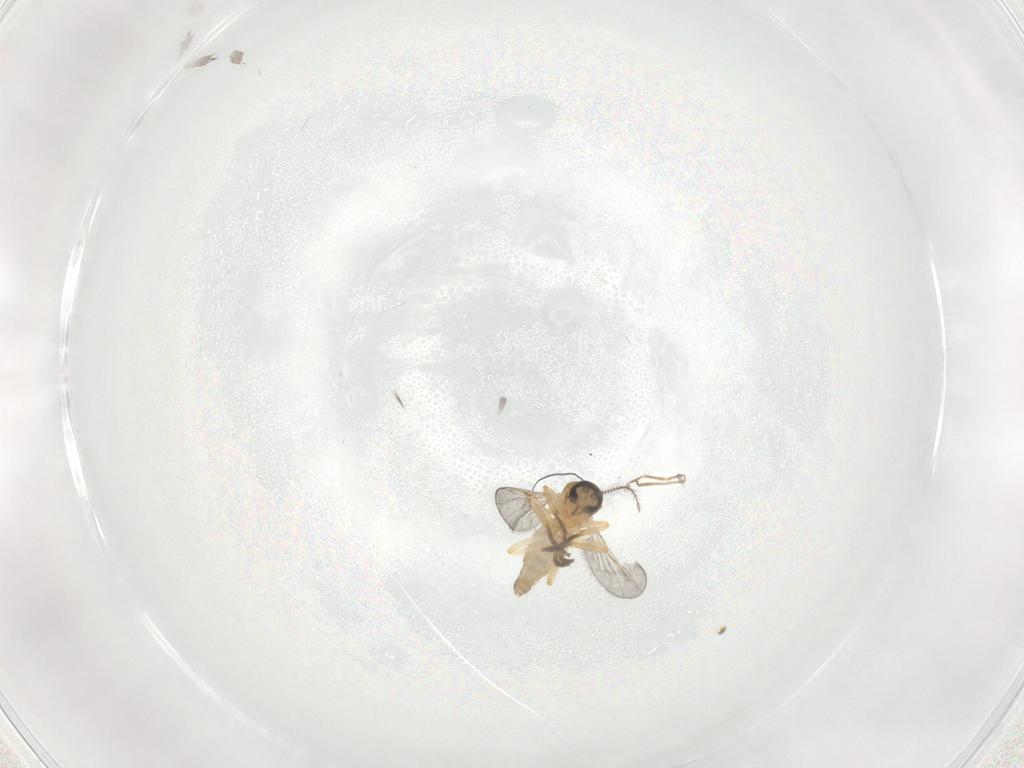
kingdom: Animalia
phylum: Arthropoda
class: Insecta
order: Diptera
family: Ceratopogonidae
